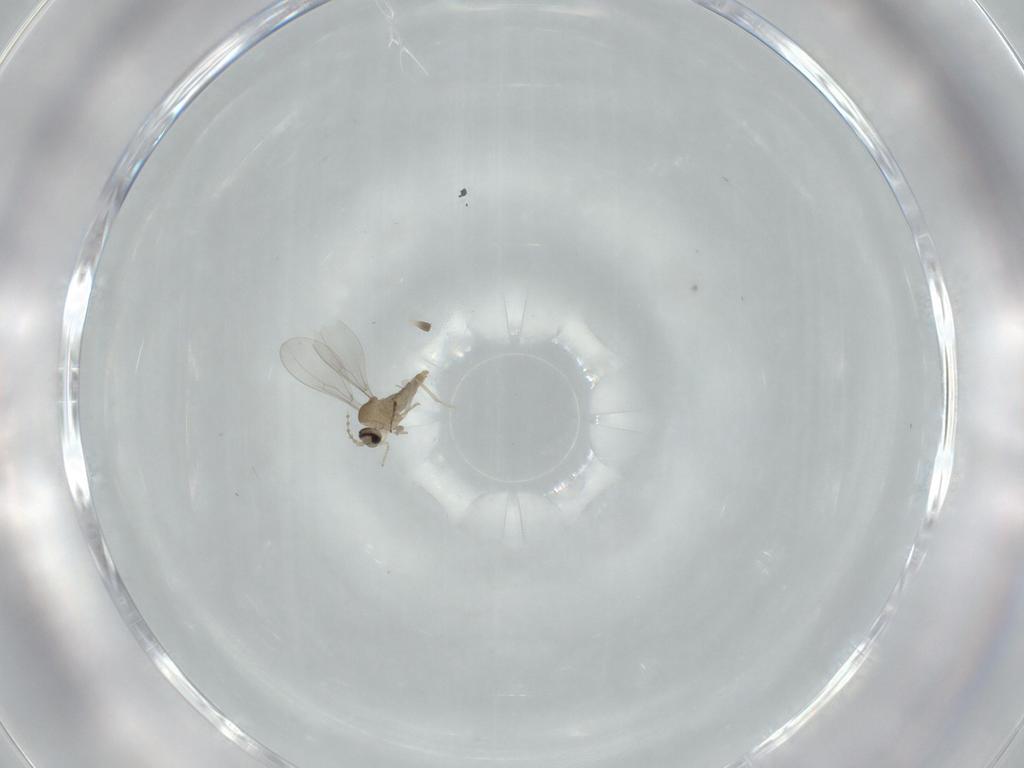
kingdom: Animalia
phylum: Arthropoda
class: Insecta
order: Diptera
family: Cecidomyiidae
